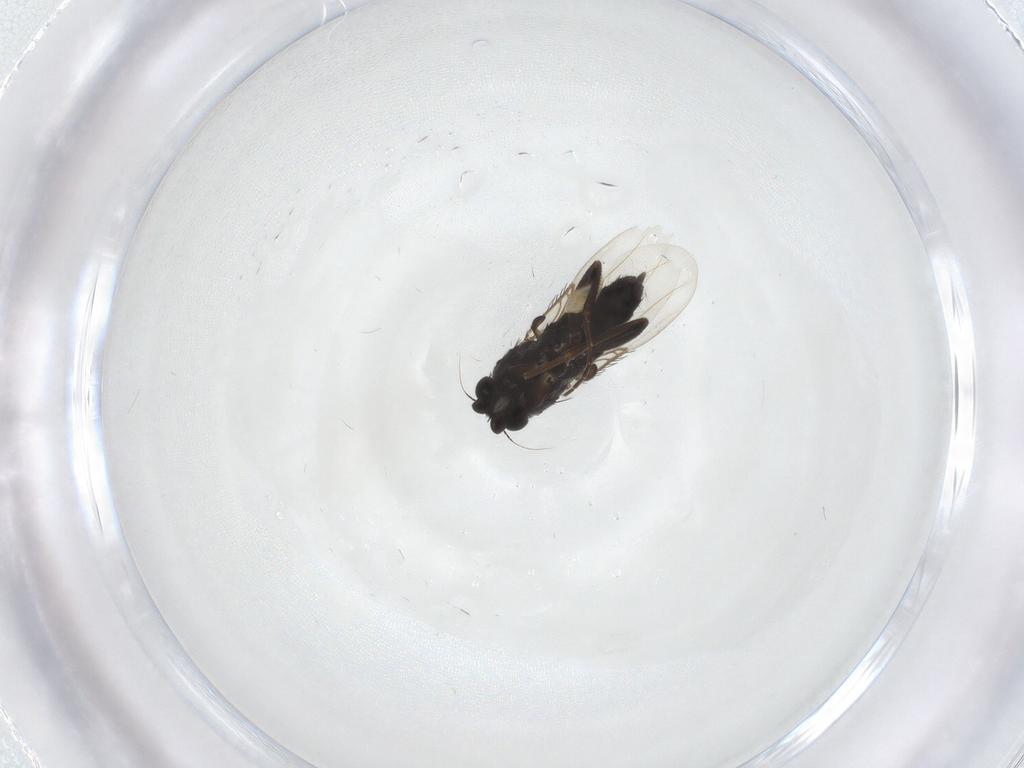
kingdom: Animalia
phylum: Arthropoda
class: Insecta
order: Diptera
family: Phoridae
